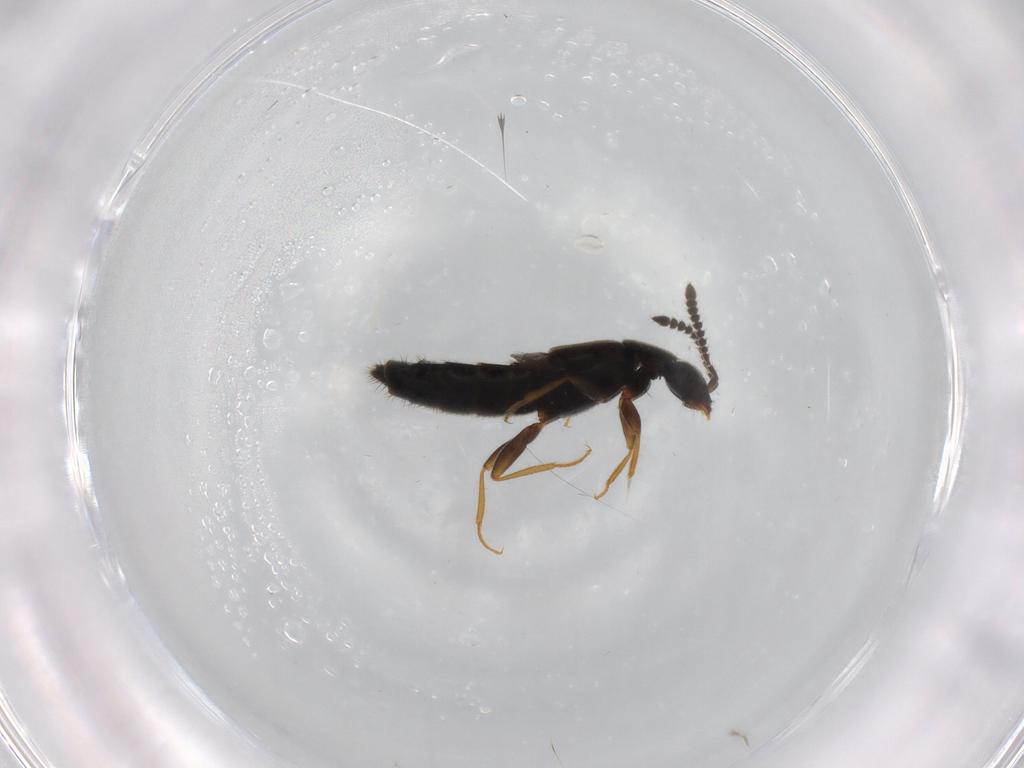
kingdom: Animalia
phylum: Arthropoda
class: Insecta
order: Coleoptera
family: Staphylinidae
